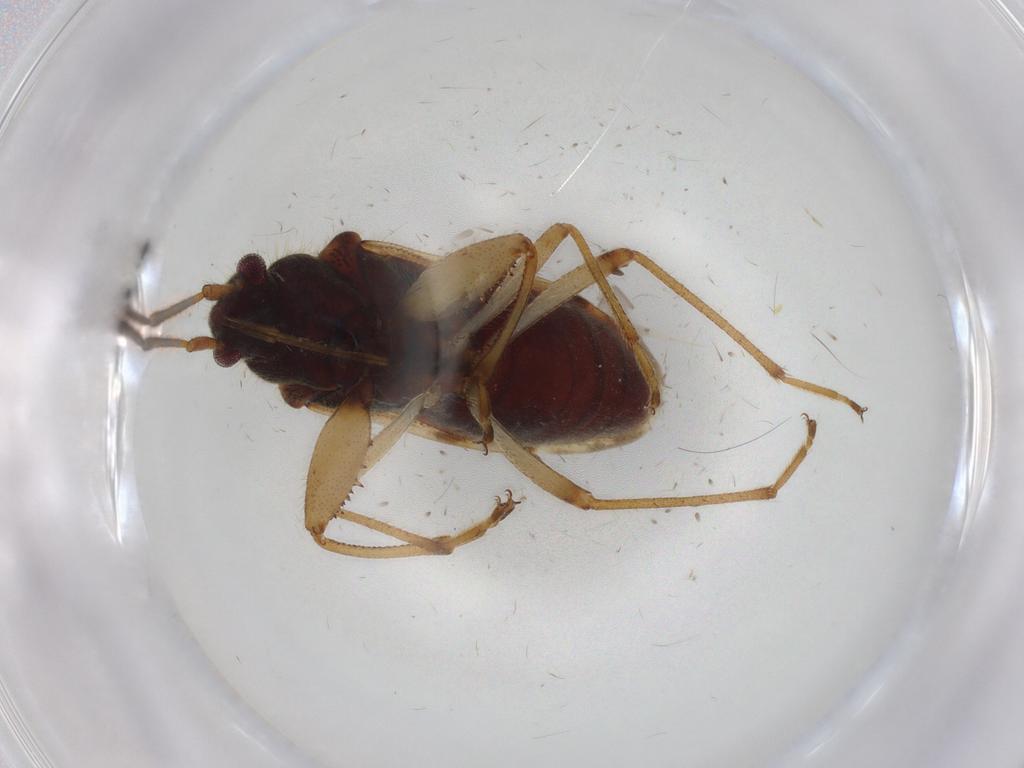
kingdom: Animalia
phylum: Arthropoda
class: Insecta
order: Hemiptera
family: Rhyparochromidae
